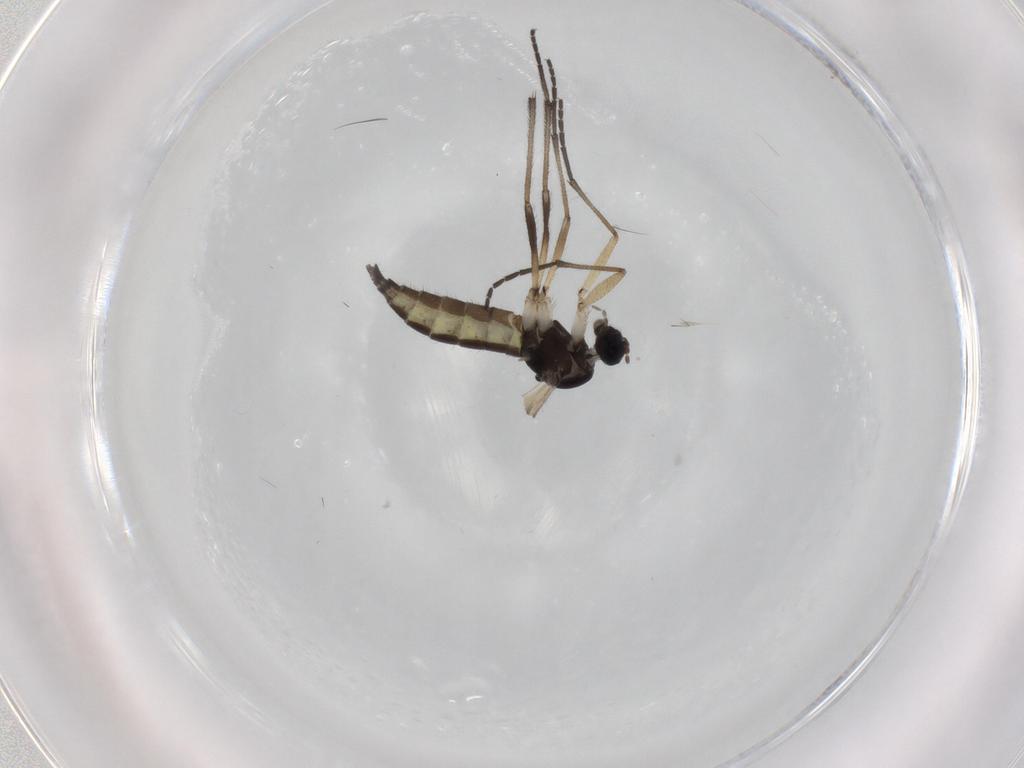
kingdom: Animalia
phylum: Arthropoda
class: Insecta
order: Diptera
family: Sciaridae
